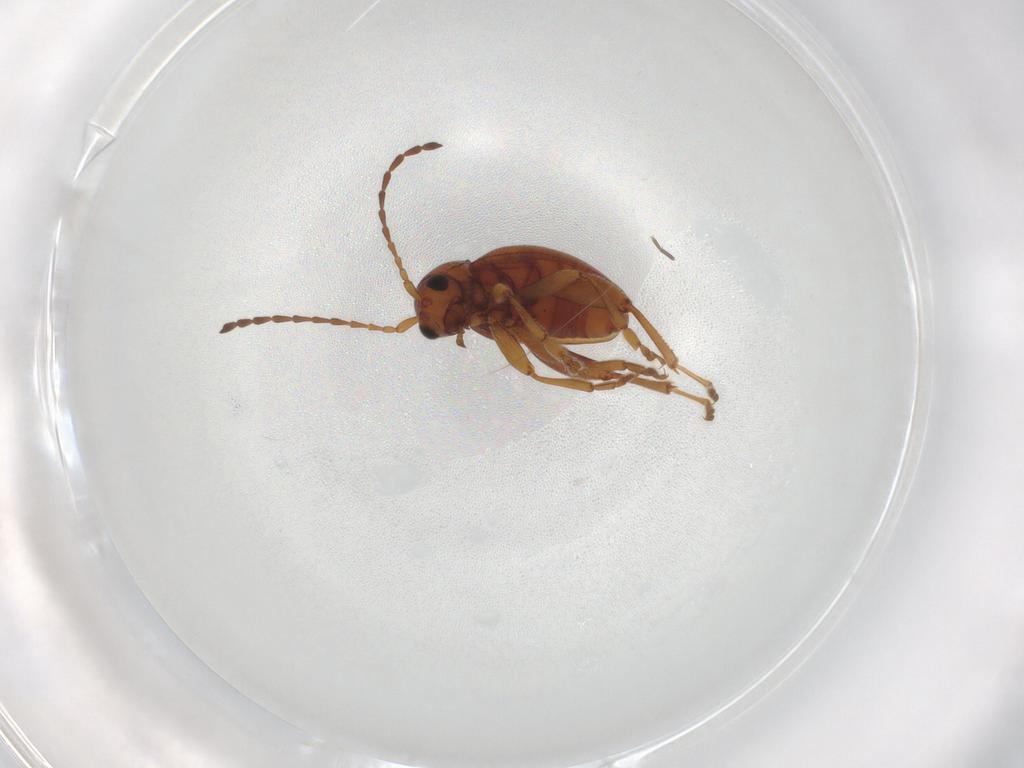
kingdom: Animalia
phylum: Arthropoda
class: Insecta
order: Coleoptera
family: Chrysomelidae
